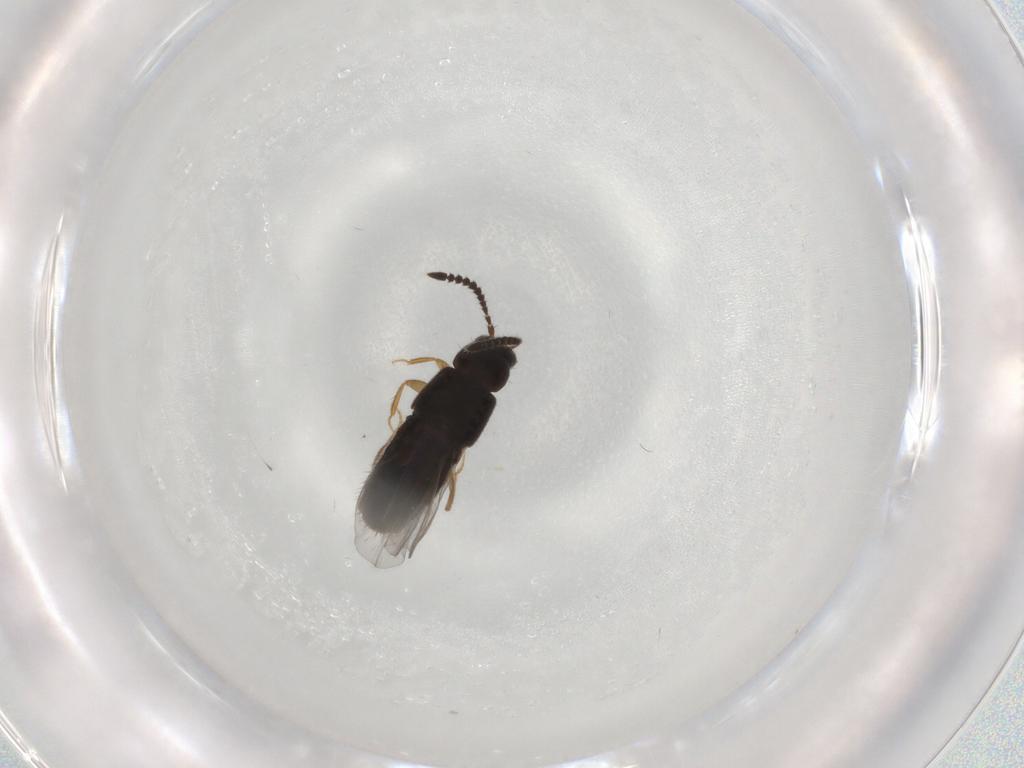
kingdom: Animalia
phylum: Arthropoda
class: Insecta
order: Coleoptera
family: Staphylinidae
